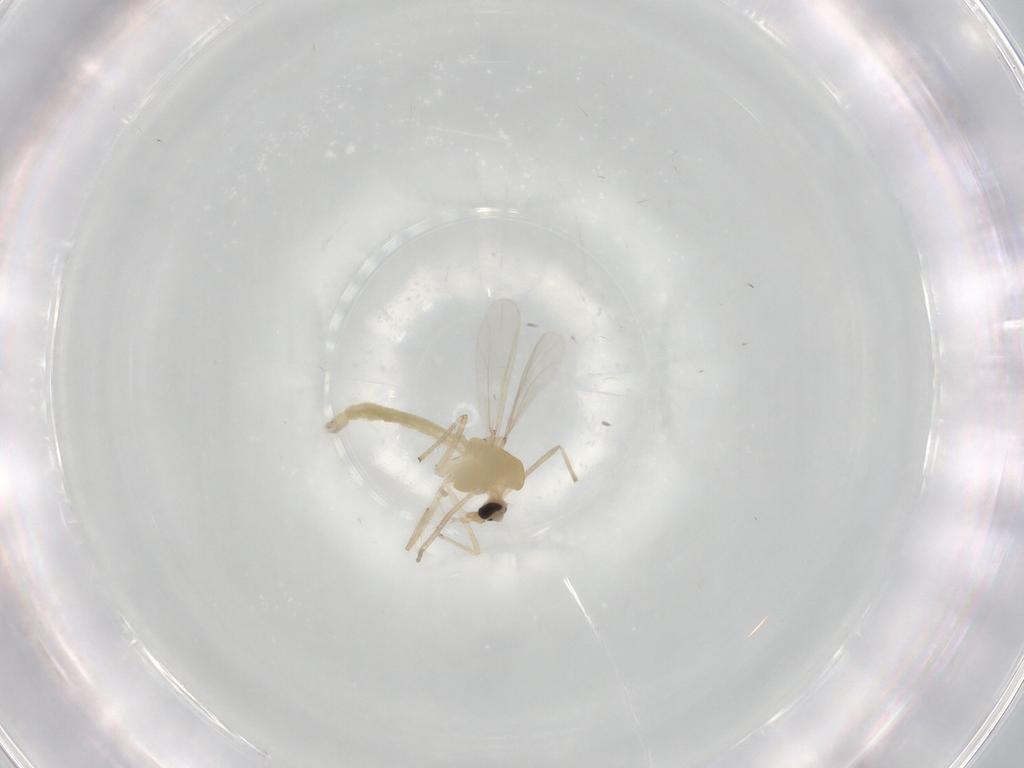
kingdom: Animalia
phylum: Arthropoda
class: Insecta
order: Diptera
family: Chironomidae
